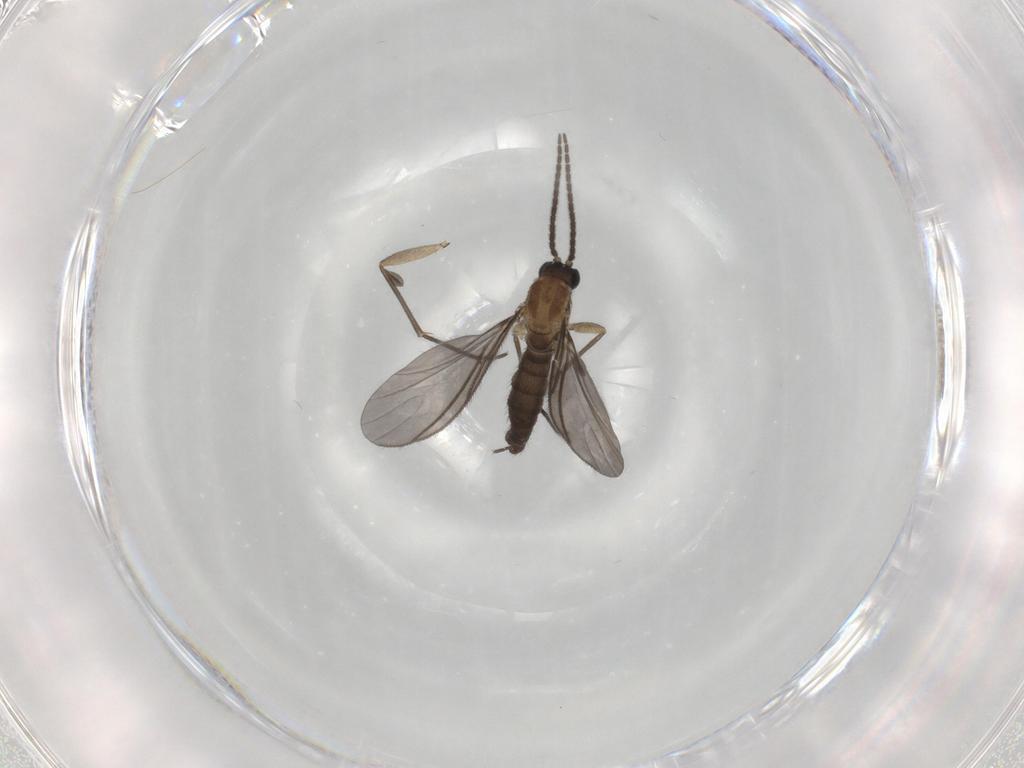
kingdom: Animalia
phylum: Arthropoda
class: Insecta
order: Diptera
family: Sciaridae
